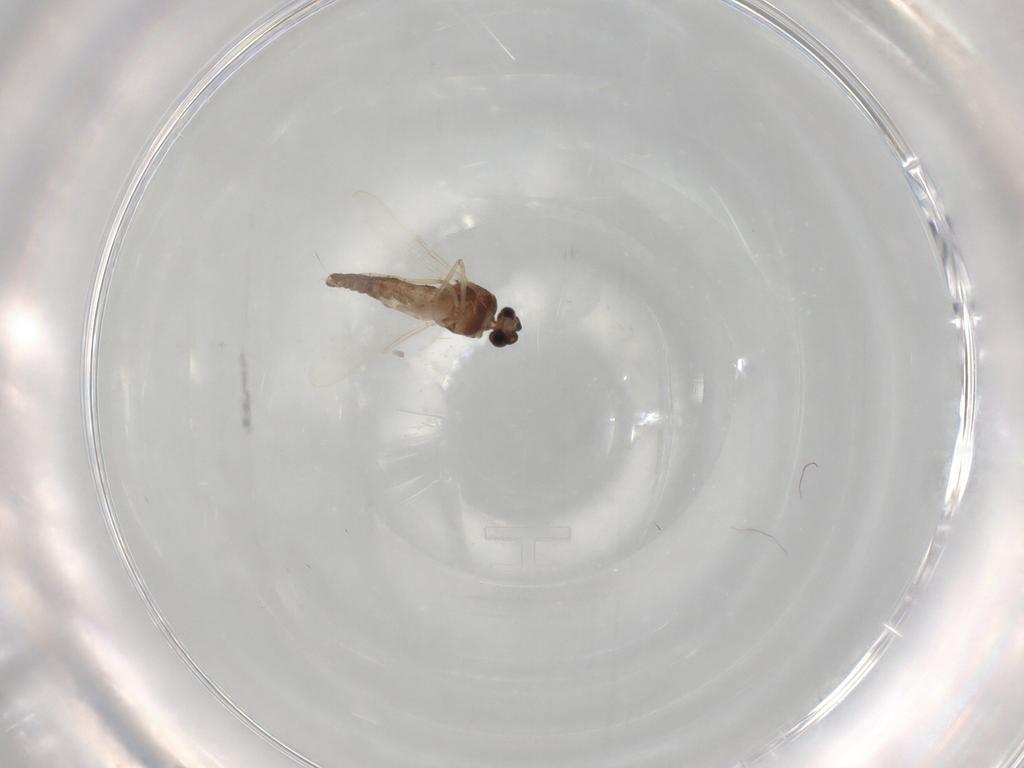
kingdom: Animalia
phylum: Arthropoda
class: Insecta
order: Diptera
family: Ceratopogonidae
